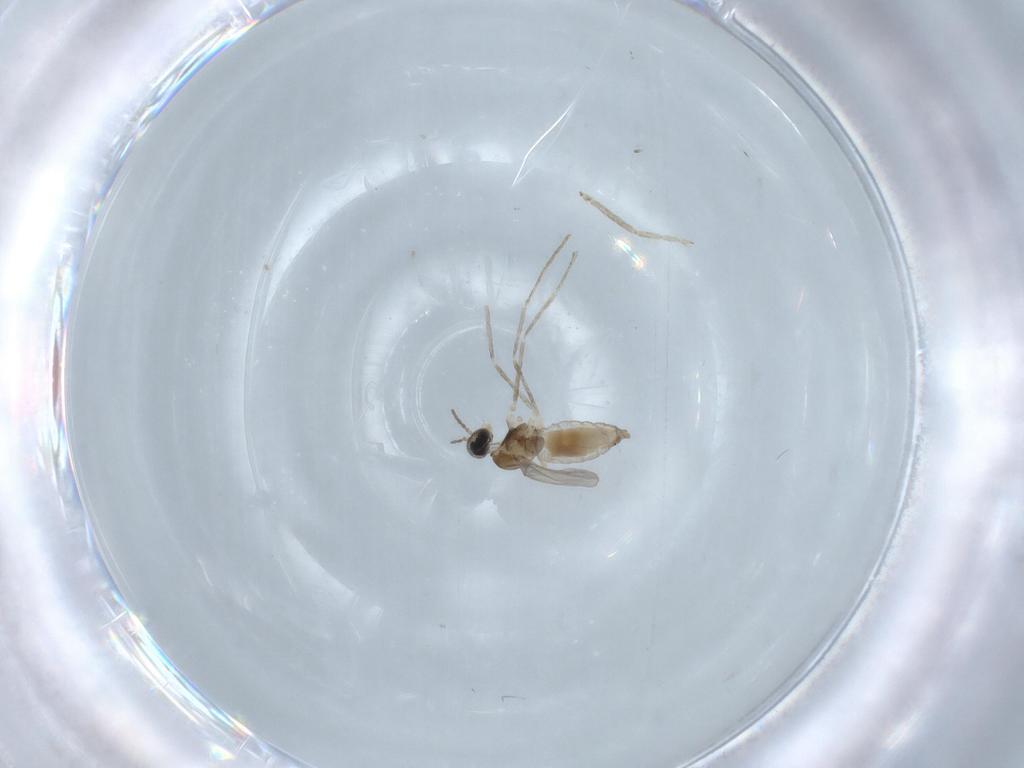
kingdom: Animalia
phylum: Arthropoda
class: Insecta
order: Diptera
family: Cecidomyiidae
